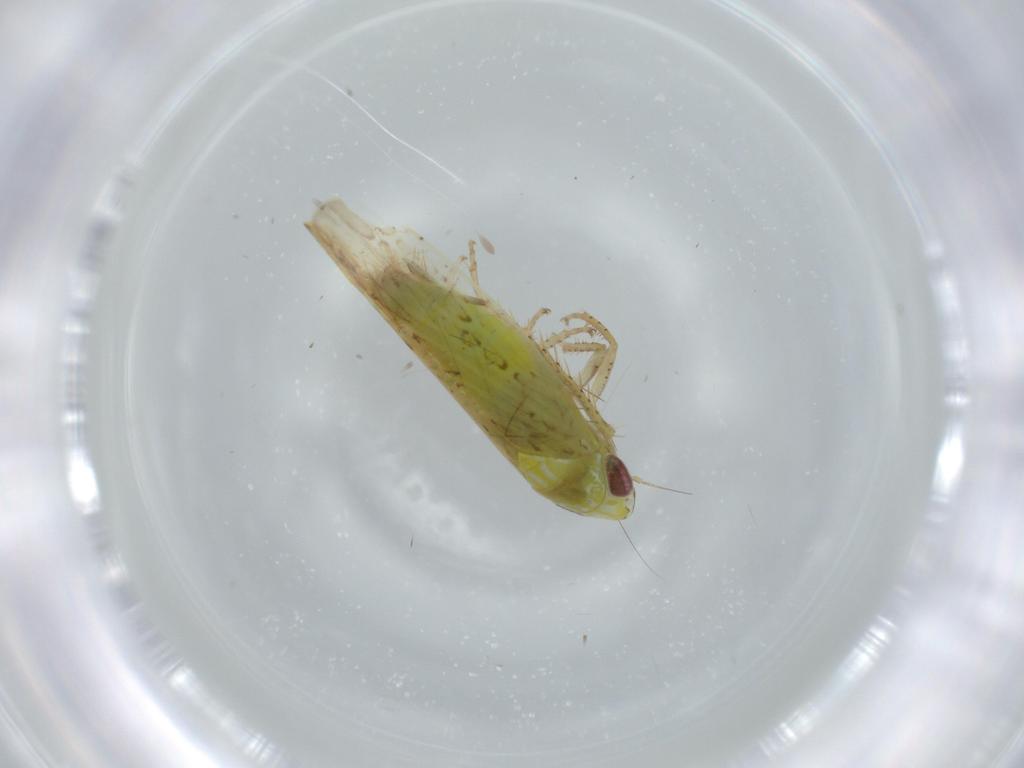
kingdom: Animalia
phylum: Arthropoda
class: Insecta
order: Hemiptera
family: Cicadellidae
